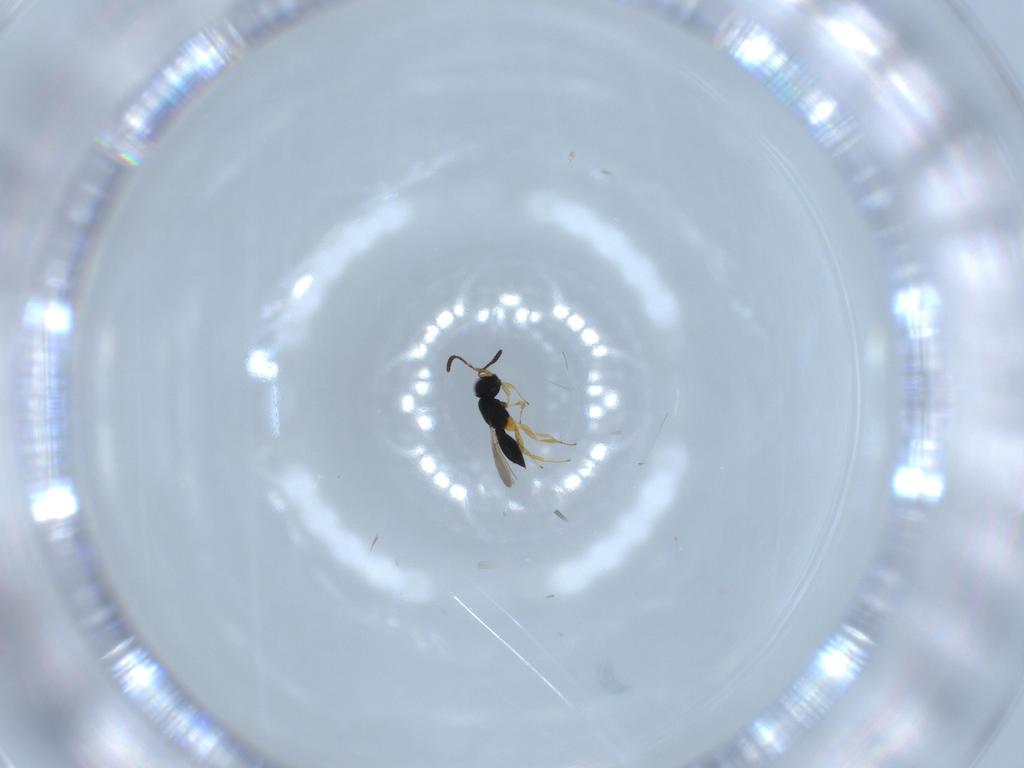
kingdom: Animalia
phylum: Arthropoda
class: Insecta
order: Hymenoptera
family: Scelionidae
